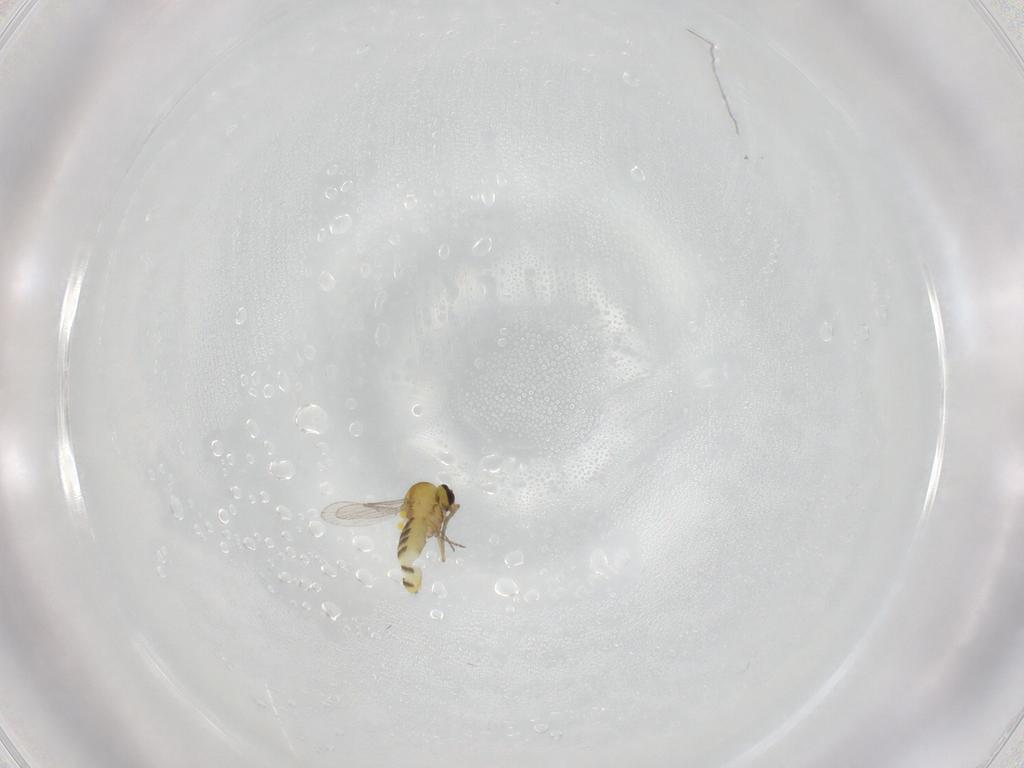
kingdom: Animalia
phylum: Arthropoda
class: Insecta
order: Diptera
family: Ceratopogonidae
